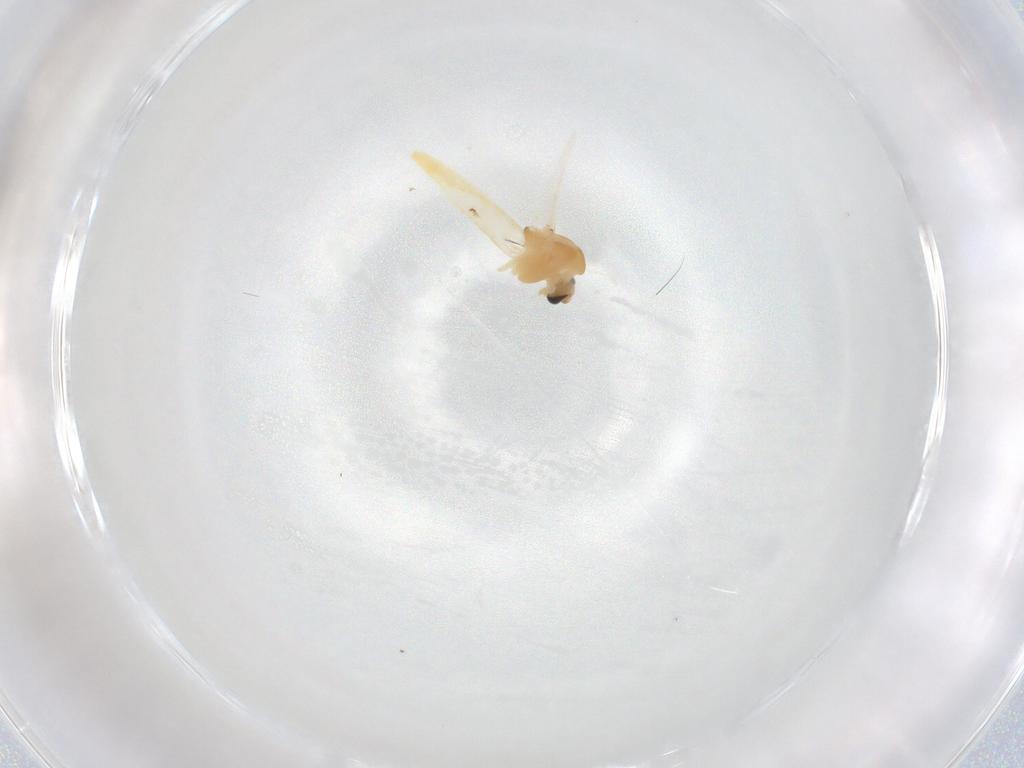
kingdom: Animalia
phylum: Arthropoda
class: Insecta
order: Diptera
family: Chironomidae
